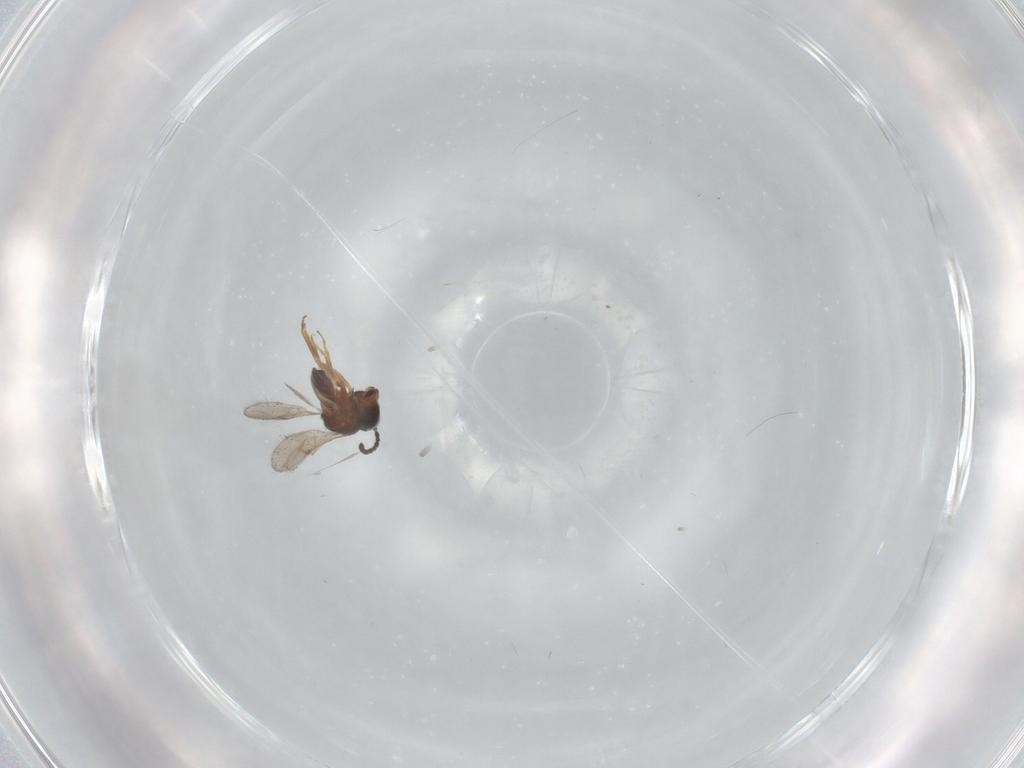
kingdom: Animalia
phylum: Arthropoda
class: Insecta
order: Hymenoptera
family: Scelionidae
